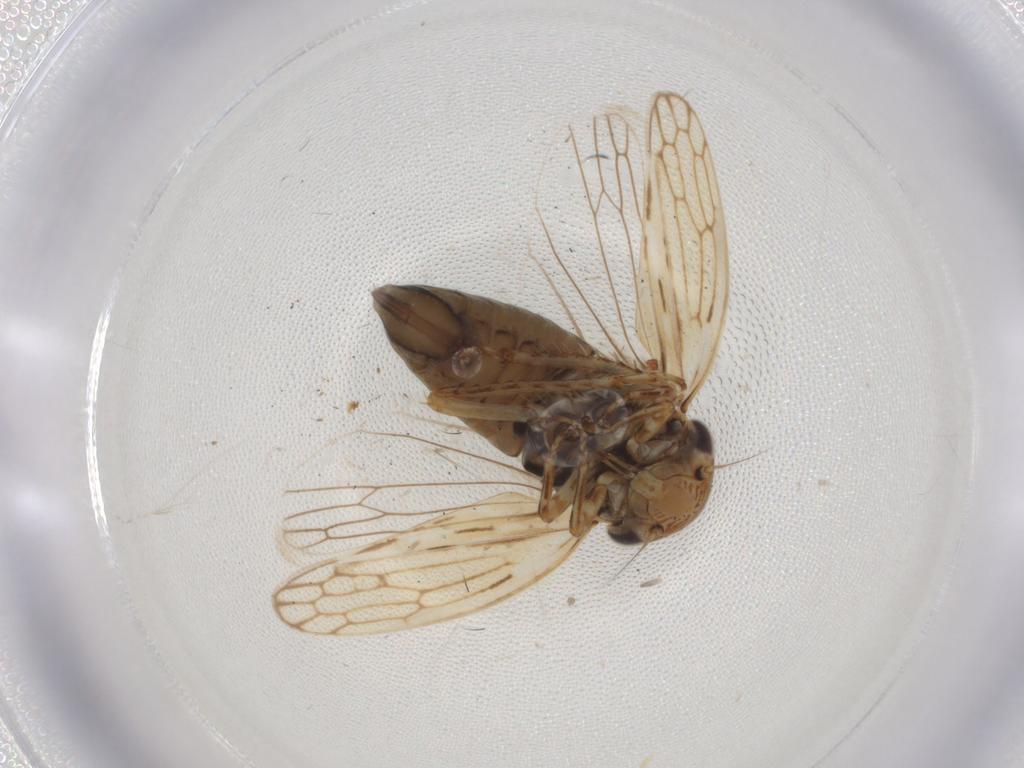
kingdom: Animalia
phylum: Arthropoda
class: Insecta
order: Hemiptera
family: Cicadellidae
